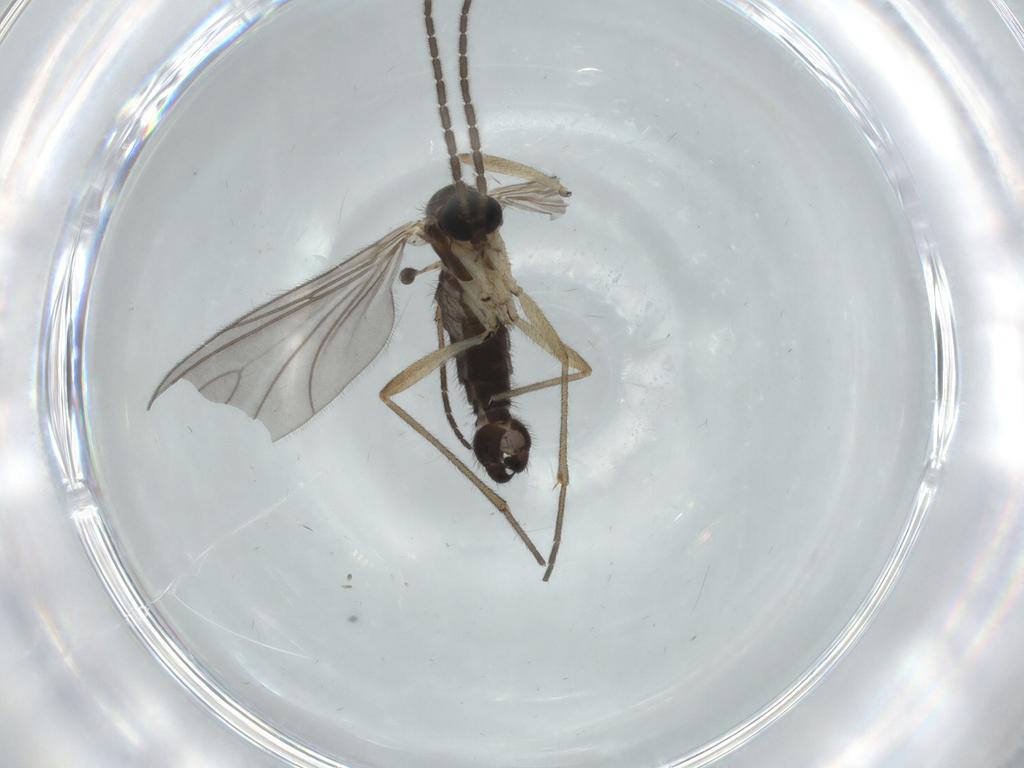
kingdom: Animalia
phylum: Arthropoda
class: Insecta
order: Diptera
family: Sciaridae
